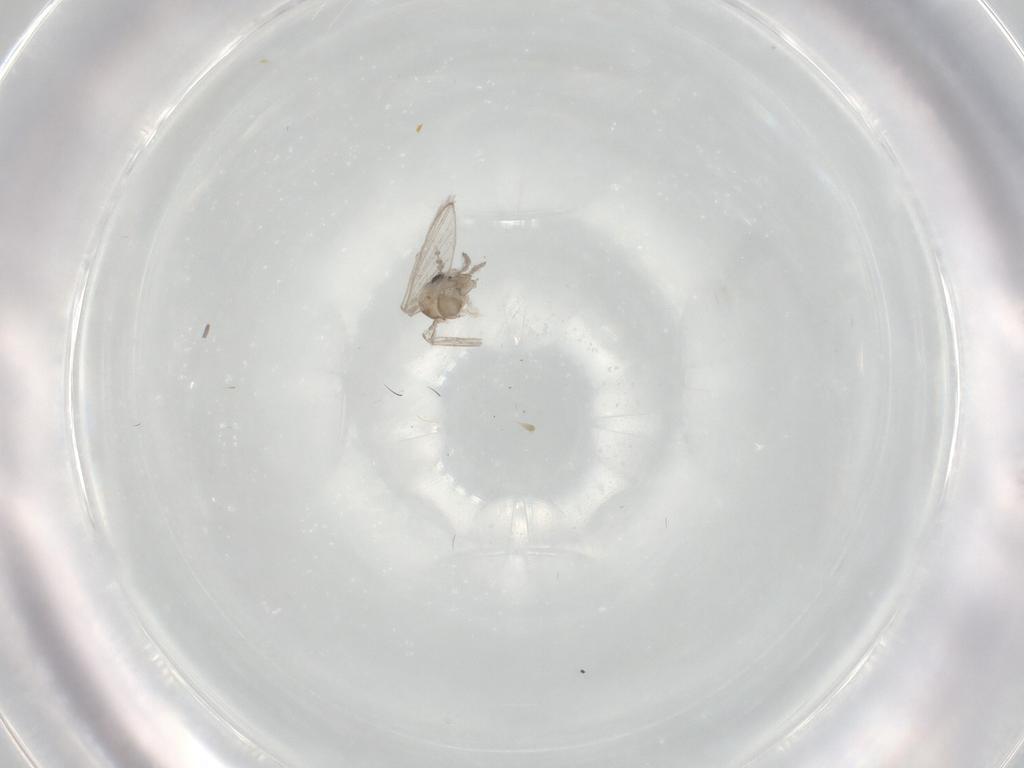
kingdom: Animalia
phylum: Arthropoda
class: Insecta
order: Diptera
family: Psychodidae
